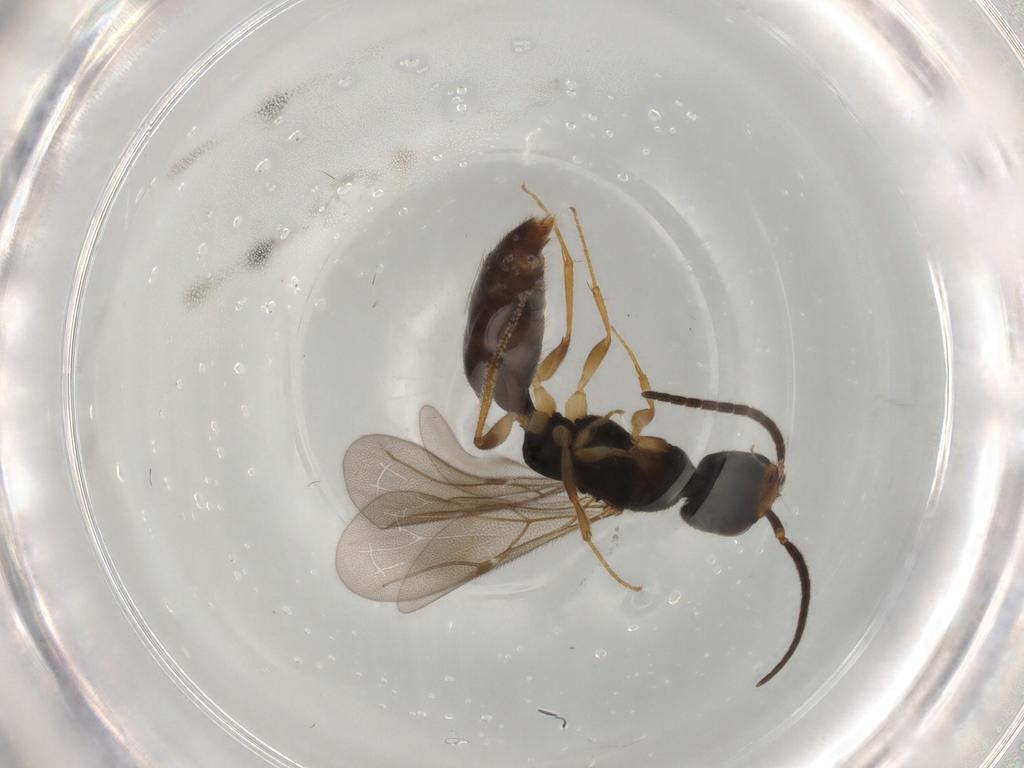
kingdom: Animalia
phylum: Arthropoda
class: Insecta
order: Hymenoptera
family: Bethylidae
